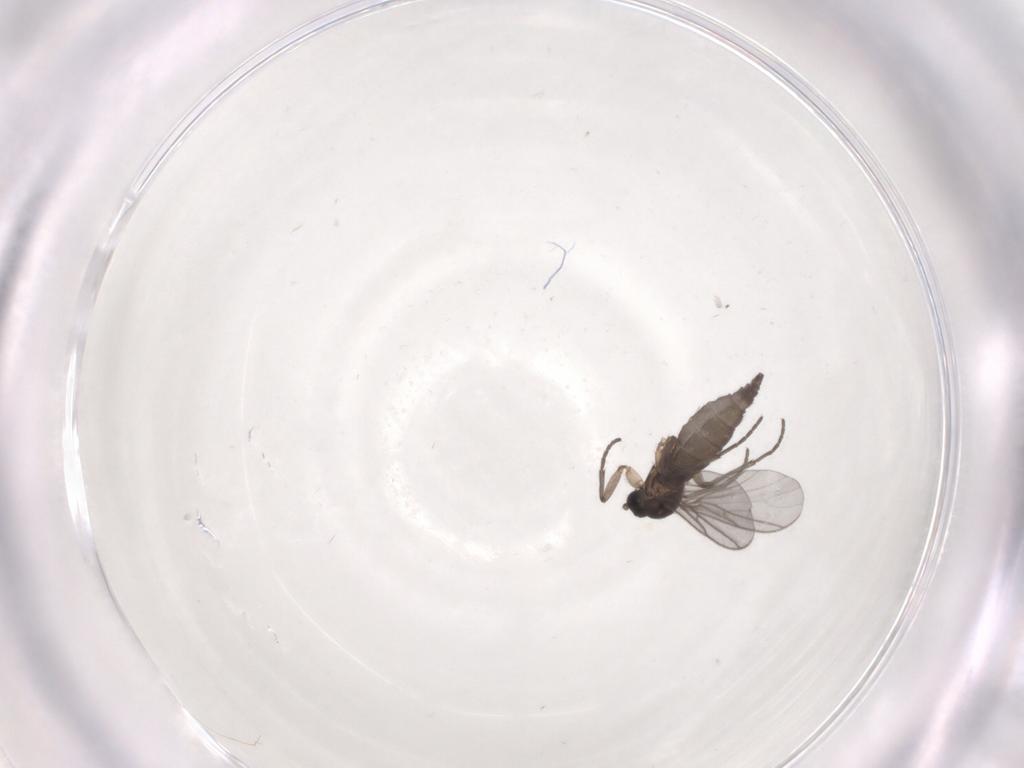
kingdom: Animalia
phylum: Arthropoda
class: Insecta
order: Diptera
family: Sciaridae
